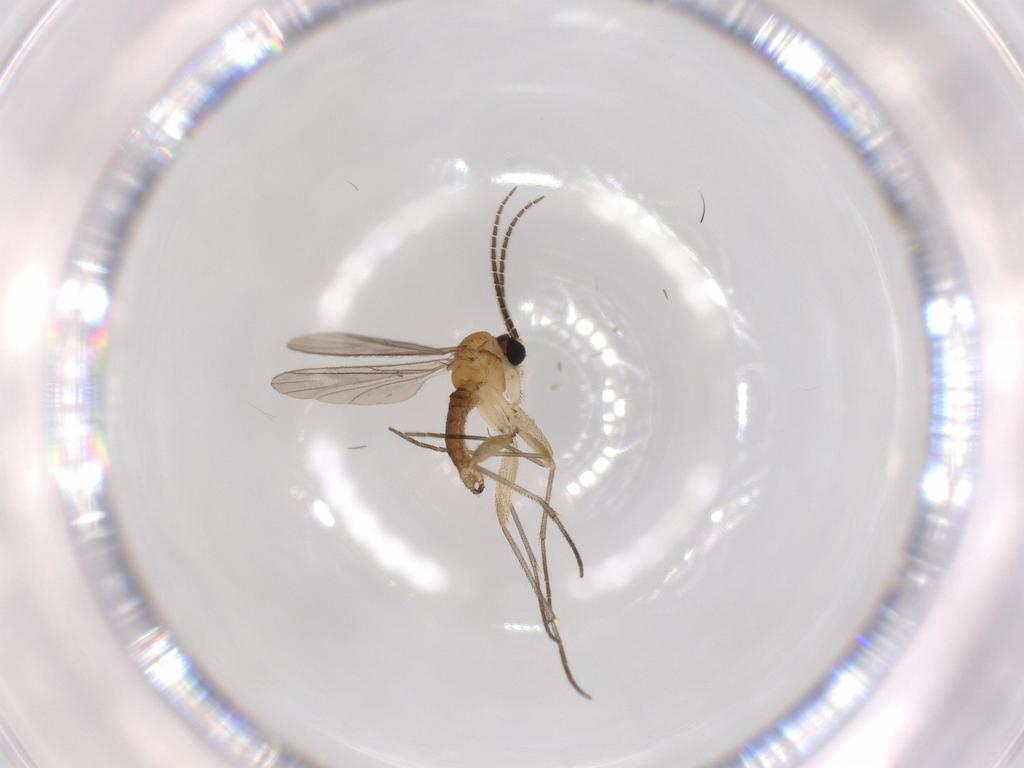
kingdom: Animalia
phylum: Arthropoda
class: Insecta
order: Diptera
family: Sciaridae
